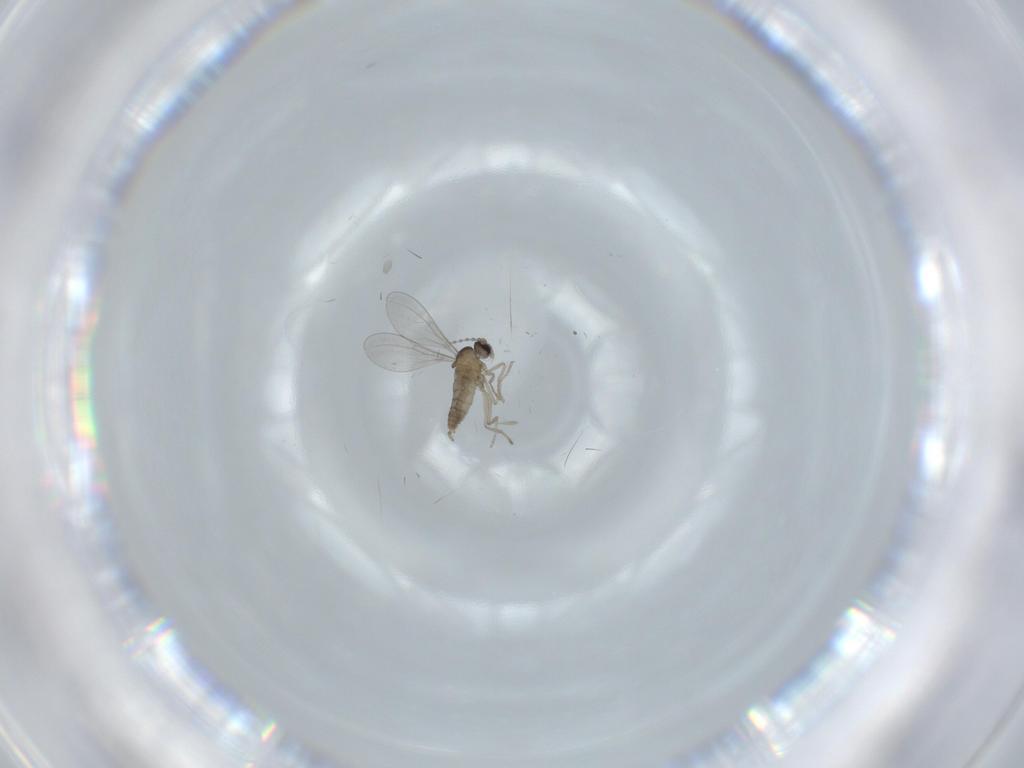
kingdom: Animalia
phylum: Arthropoda
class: Insecta
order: Diptera
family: Cecidomyiidae
